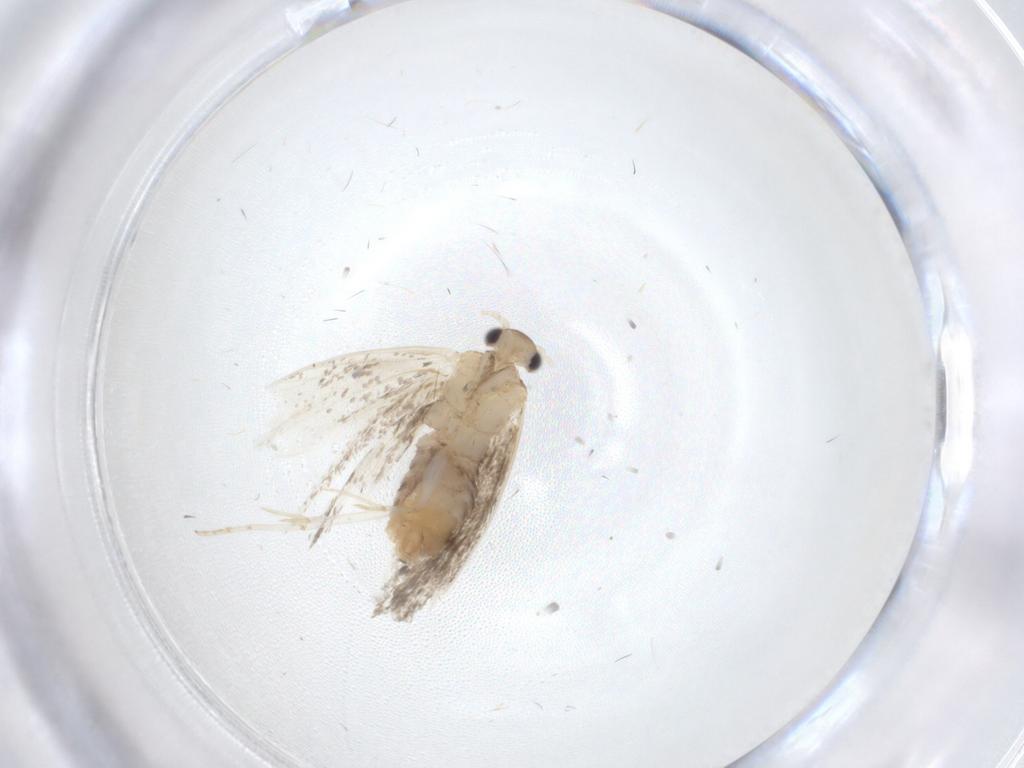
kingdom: Animalia
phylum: Arthropoda
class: Insecta
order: Lepidoptera
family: Tineidae
